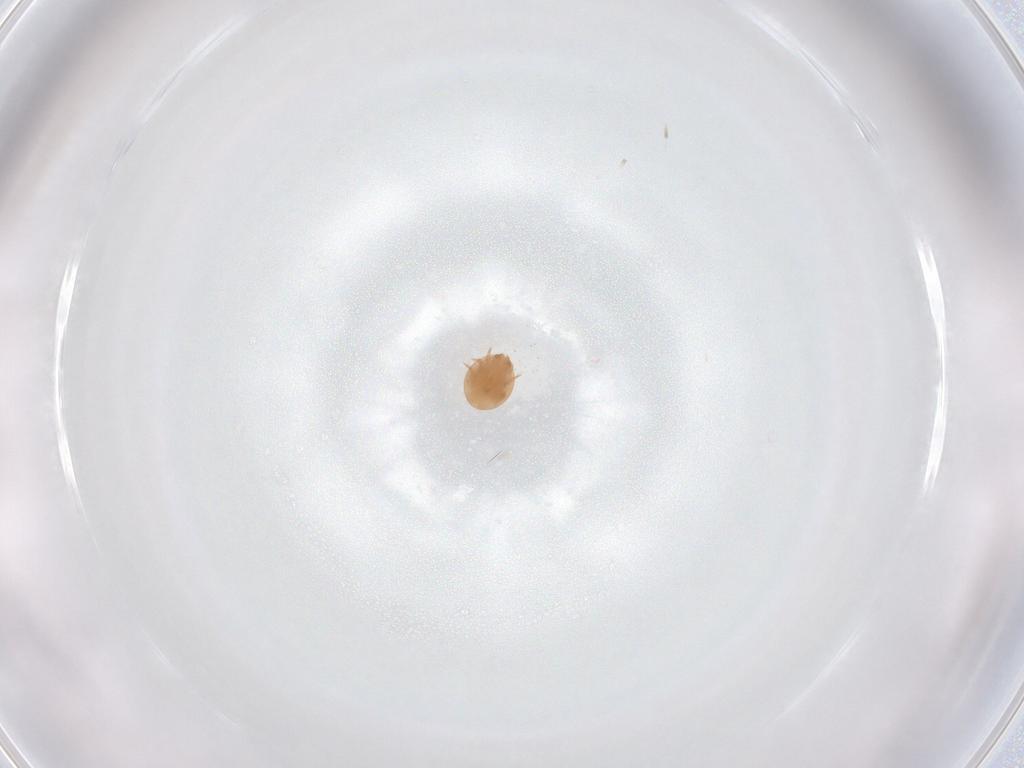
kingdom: Animalia
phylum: Arthropoda
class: Arachnida
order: Mesostigmata
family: Trematuridae
